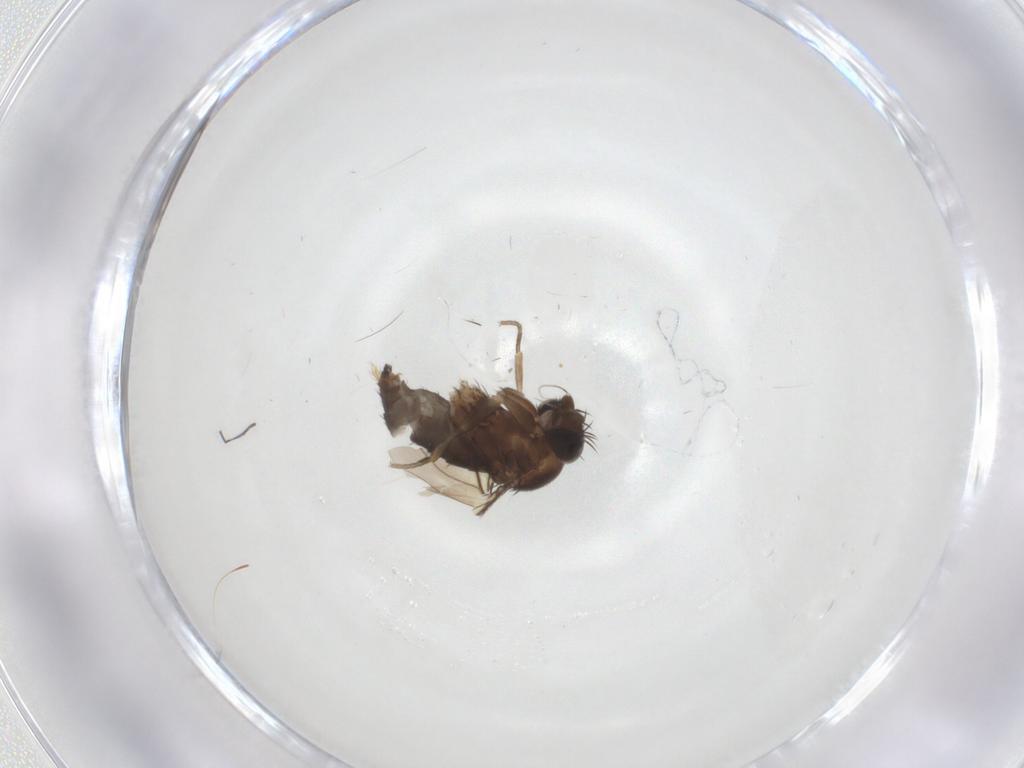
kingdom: Animalia
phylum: Arthropoda
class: Insecta
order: Diptera
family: Phoridae
